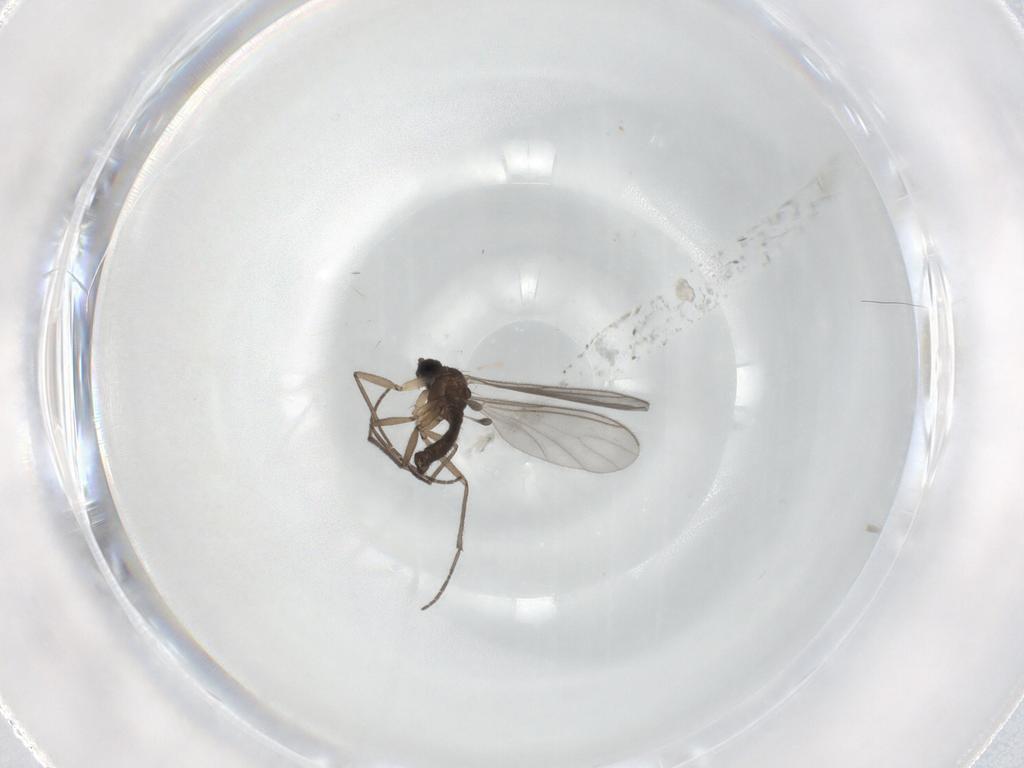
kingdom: Animalia
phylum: Arthropoda
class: Insecta
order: Diptera
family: Sciaridae
